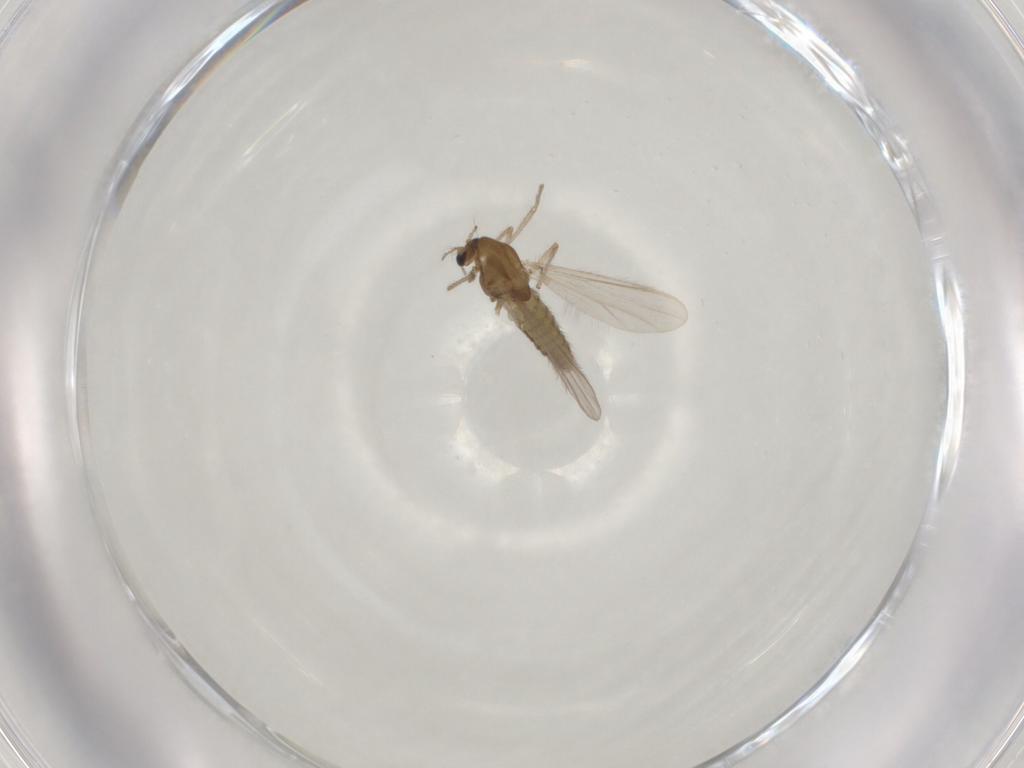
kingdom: Animalia
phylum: Arthropoda
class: Insecta
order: Diptera
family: Chironomidae
